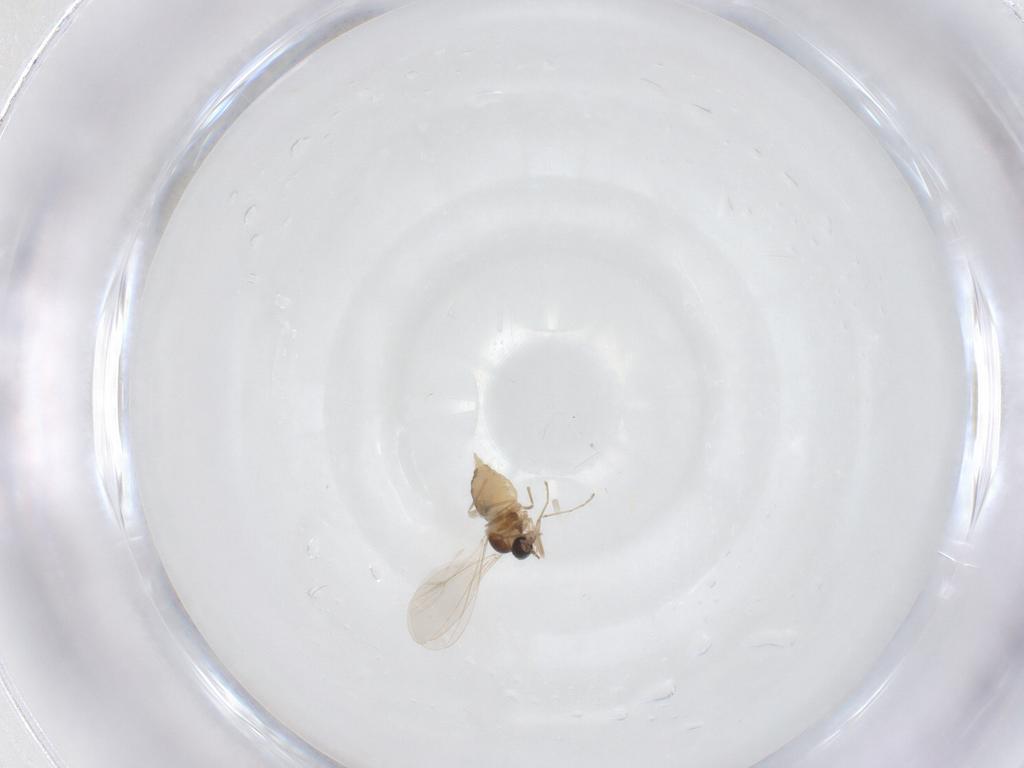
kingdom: Animalia
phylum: Arthropoda
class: Insecta
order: Diptera
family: Cecidomyiidae
